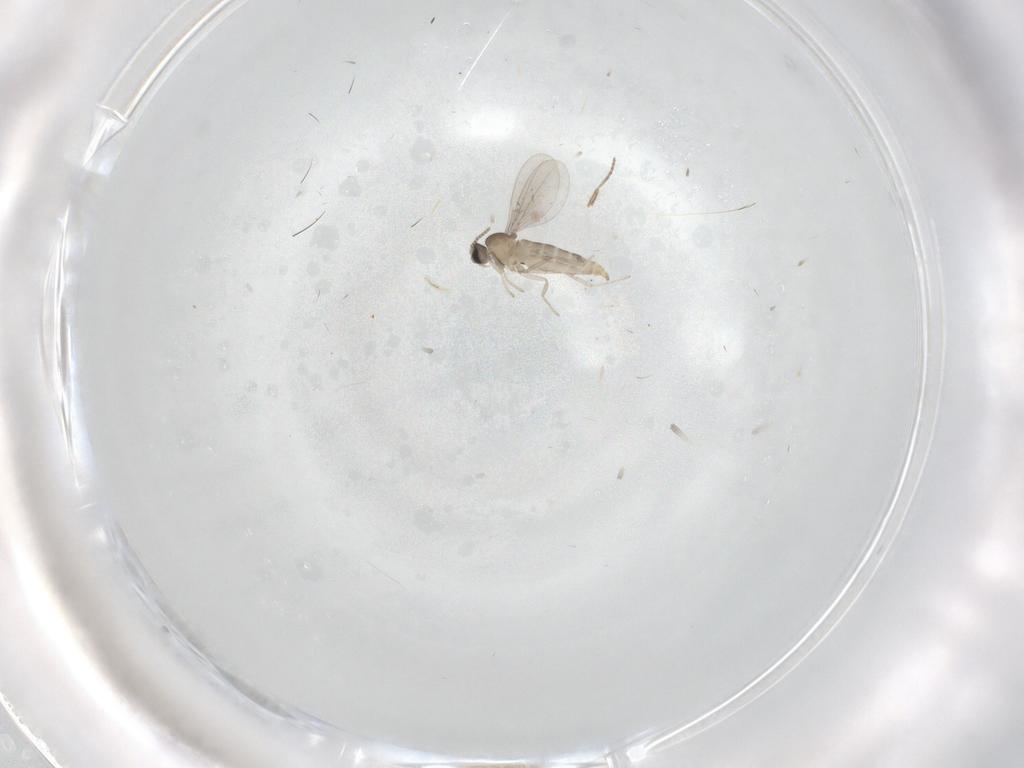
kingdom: Animalia
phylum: Arthropoda
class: Insecta
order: Diptera
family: Cecidomyiidae
